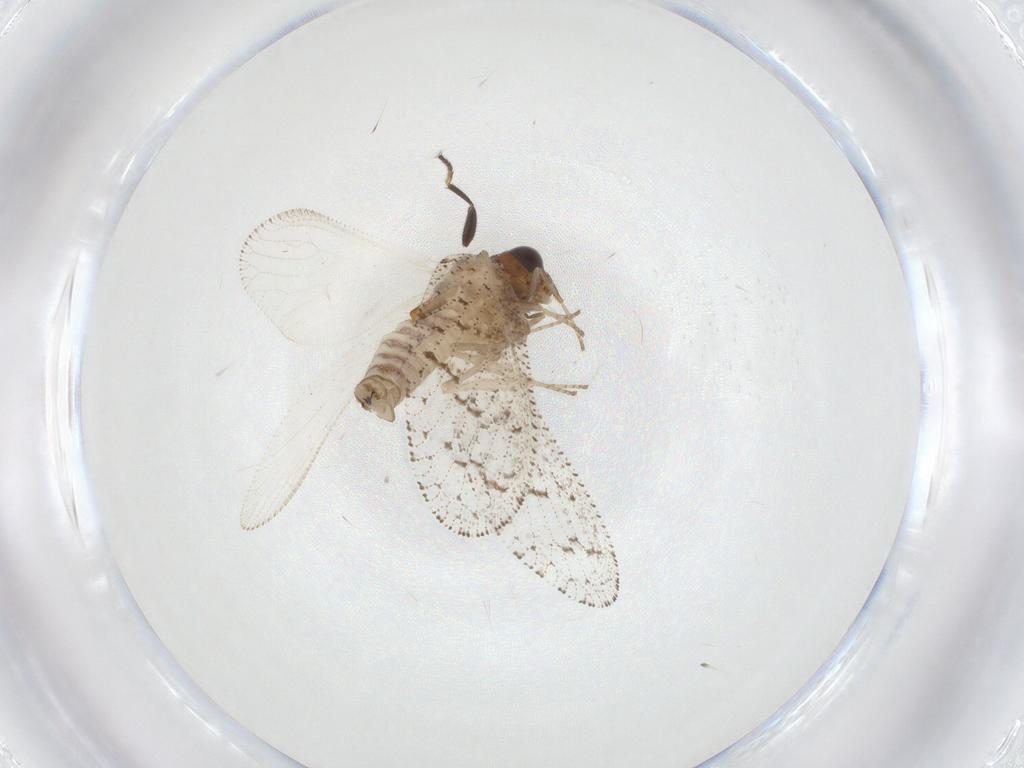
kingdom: Animalia
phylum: Arthropoda
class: Insecta
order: Neuroptera
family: Hemerobiidae
